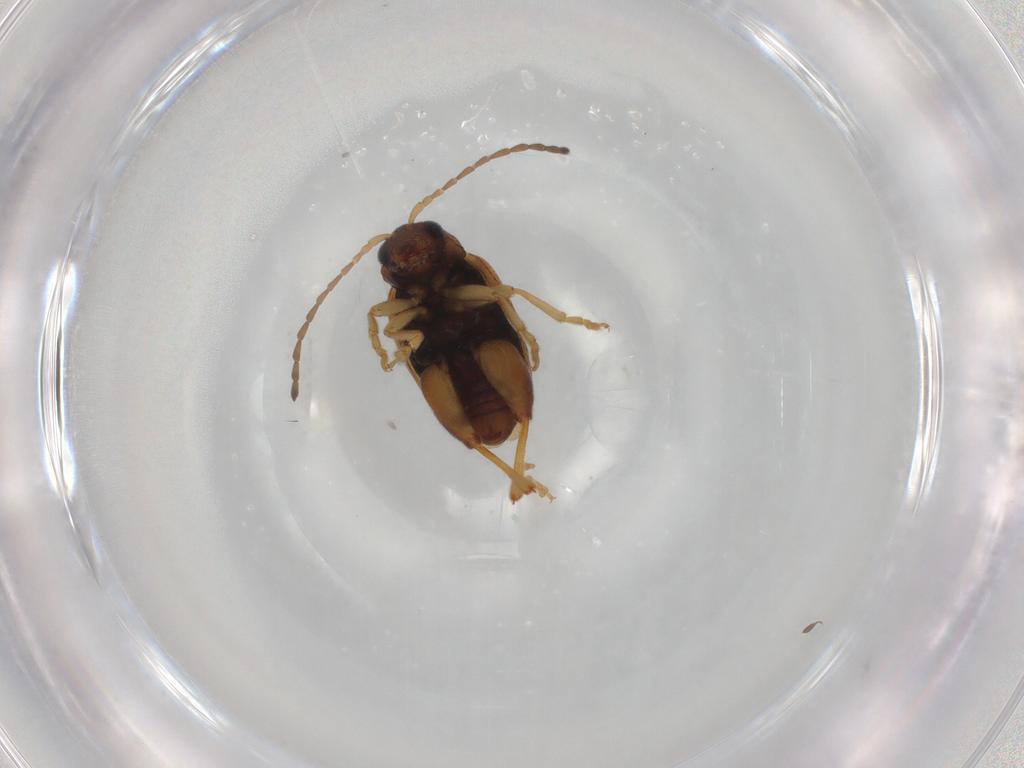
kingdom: Animalia
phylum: Arthropoda
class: Insecta
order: Coleoptera
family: Chrysomelidae
